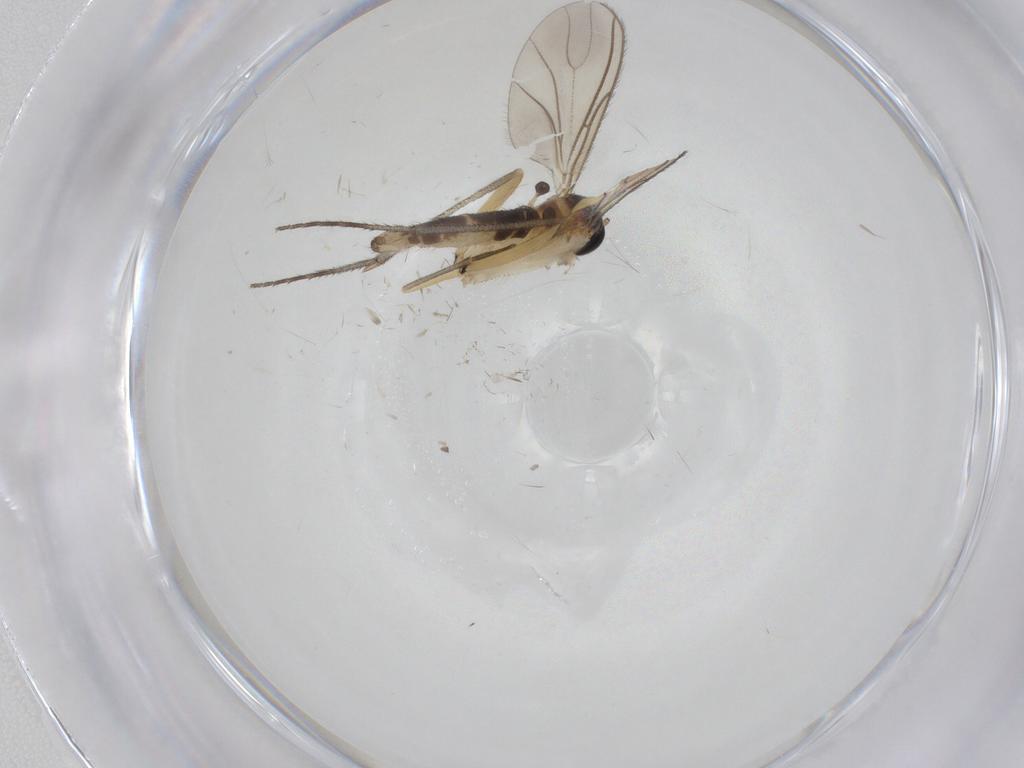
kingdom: Animalia
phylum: Arthropoda
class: Insecta
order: Diptera
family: Sciaridae
